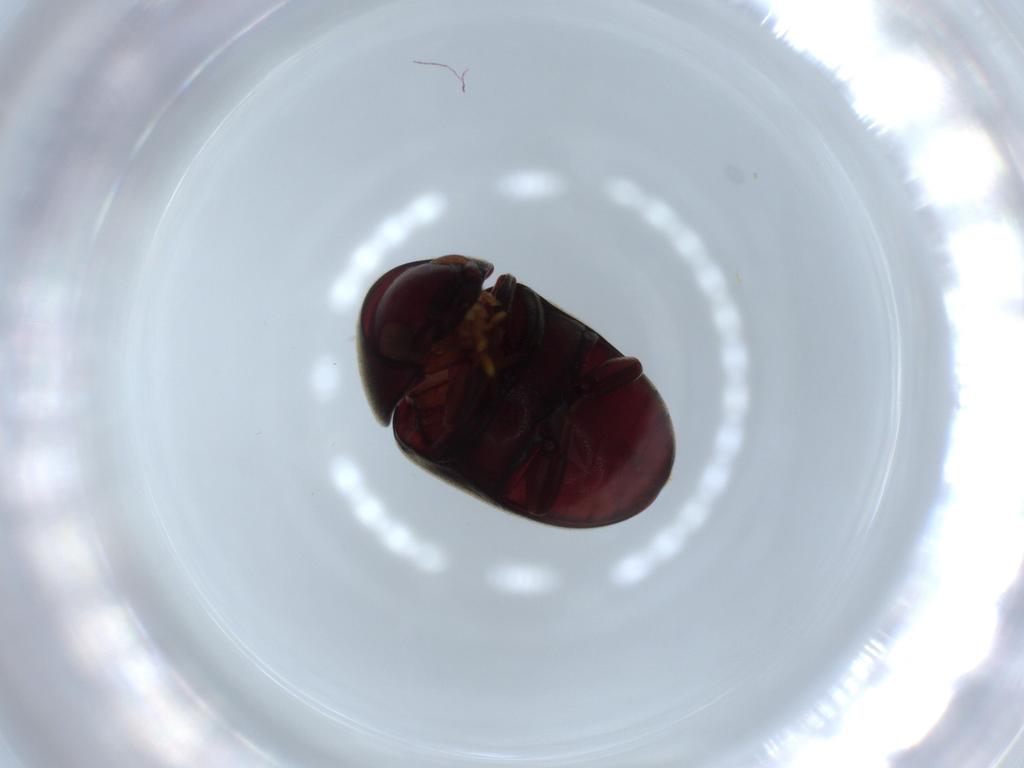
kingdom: Animalia
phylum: Arthropoda
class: Insecta
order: Coleoptera
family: Ptinidae
